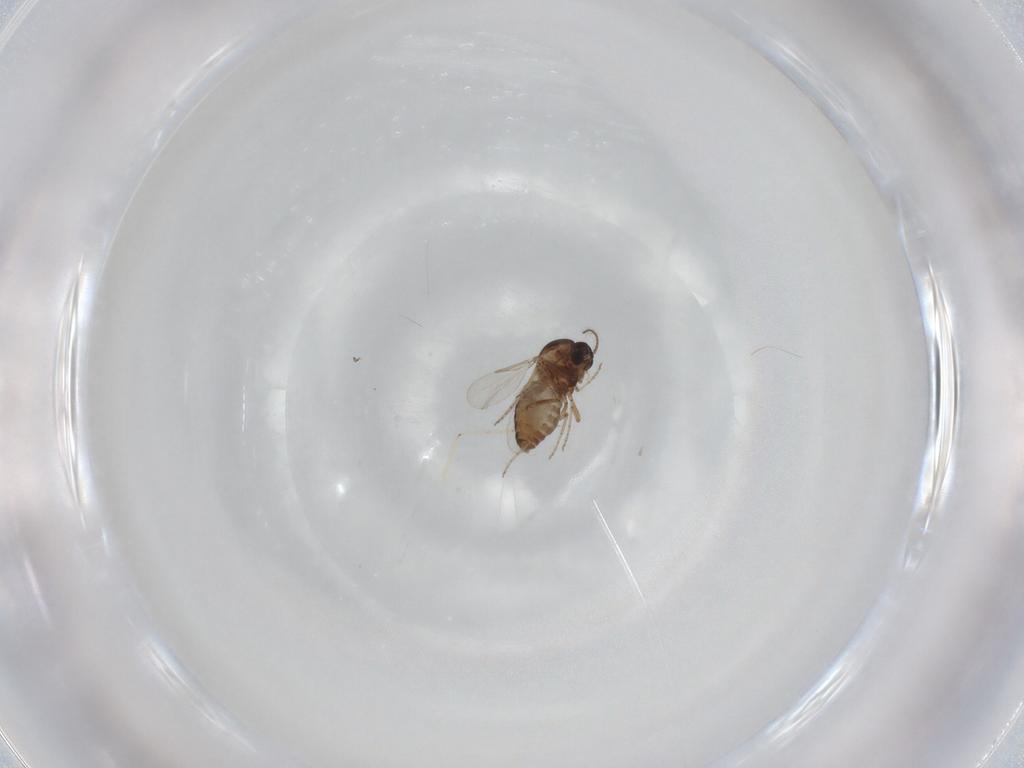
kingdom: Animalia
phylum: Arthropoda
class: Insecta
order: Diptera
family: Ceratopogonidae
